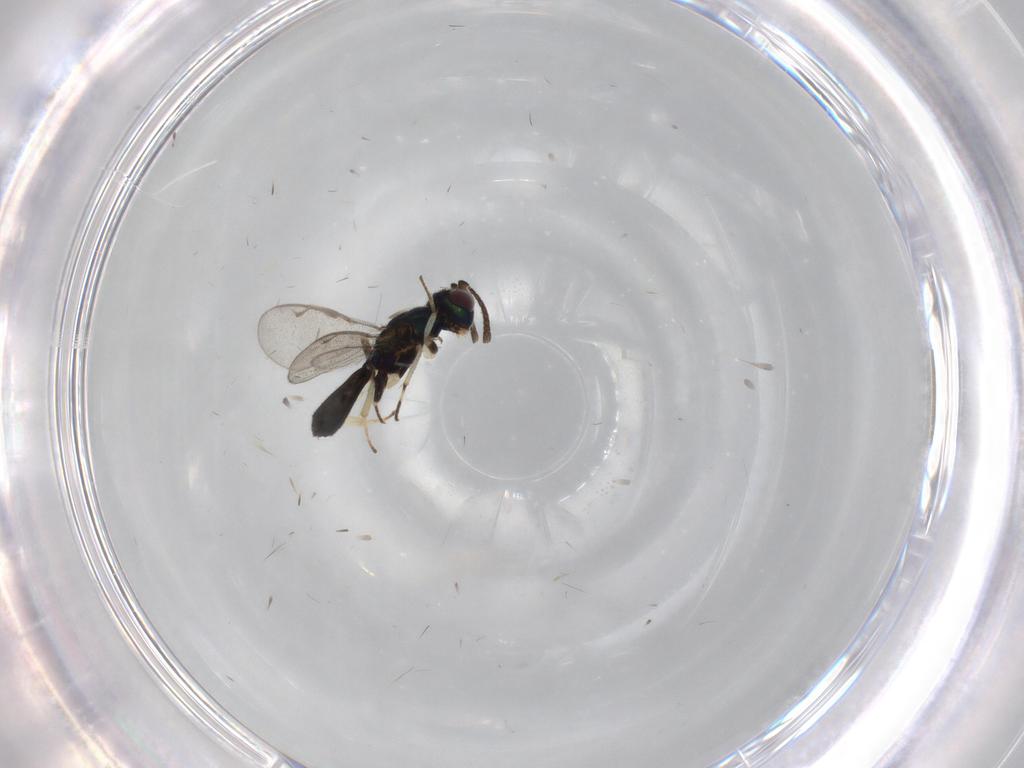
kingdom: Animalia
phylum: Arthropoda
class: Insecta
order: Hymenoptera
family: Eupelmidae
